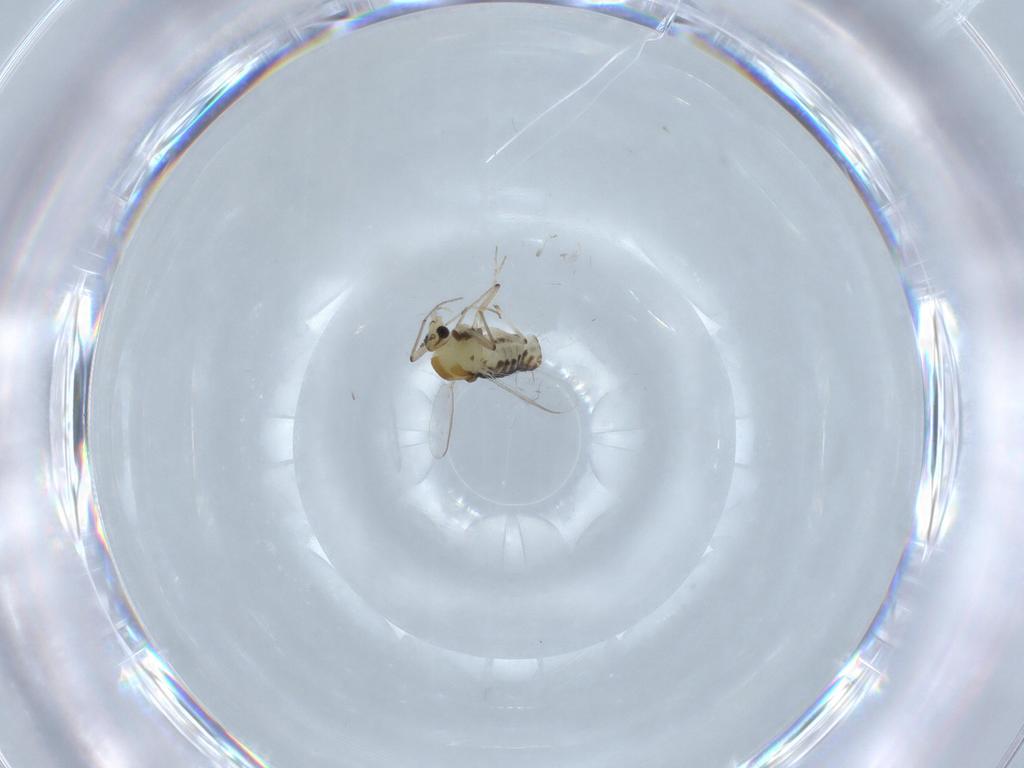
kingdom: Animalia
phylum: Arthropoda
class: Insecta
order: Diptera
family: Chironomidae
